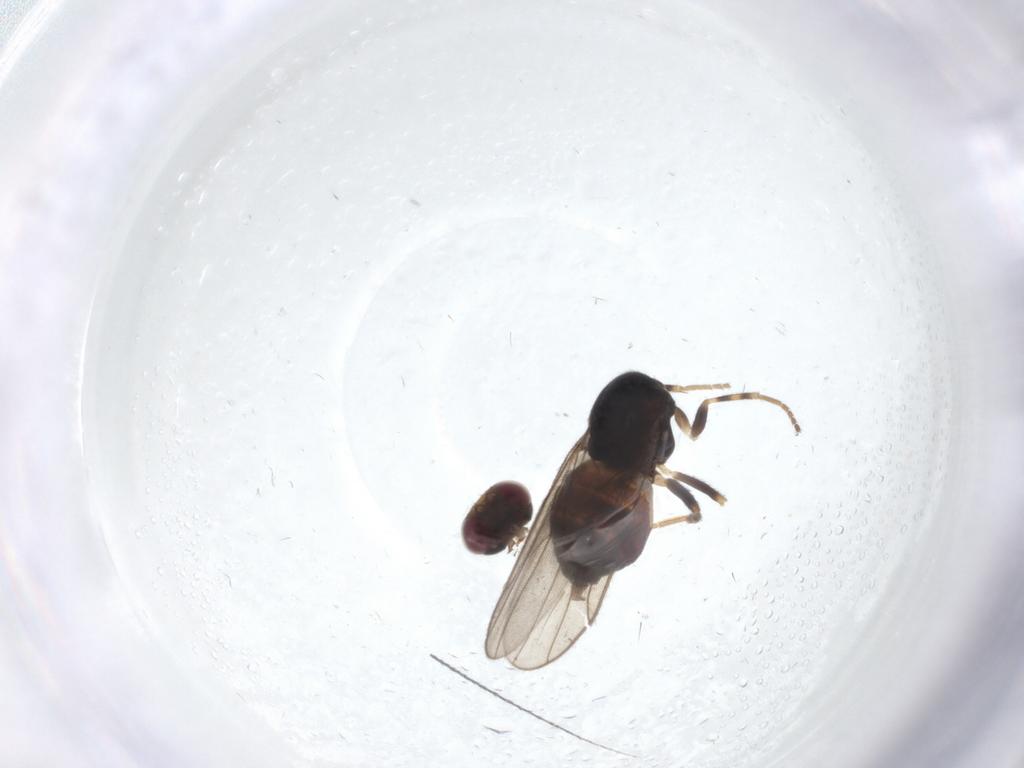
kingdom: Animalia
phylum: Arthropoda
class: Insecta
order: Diptera
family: Chloropidae
